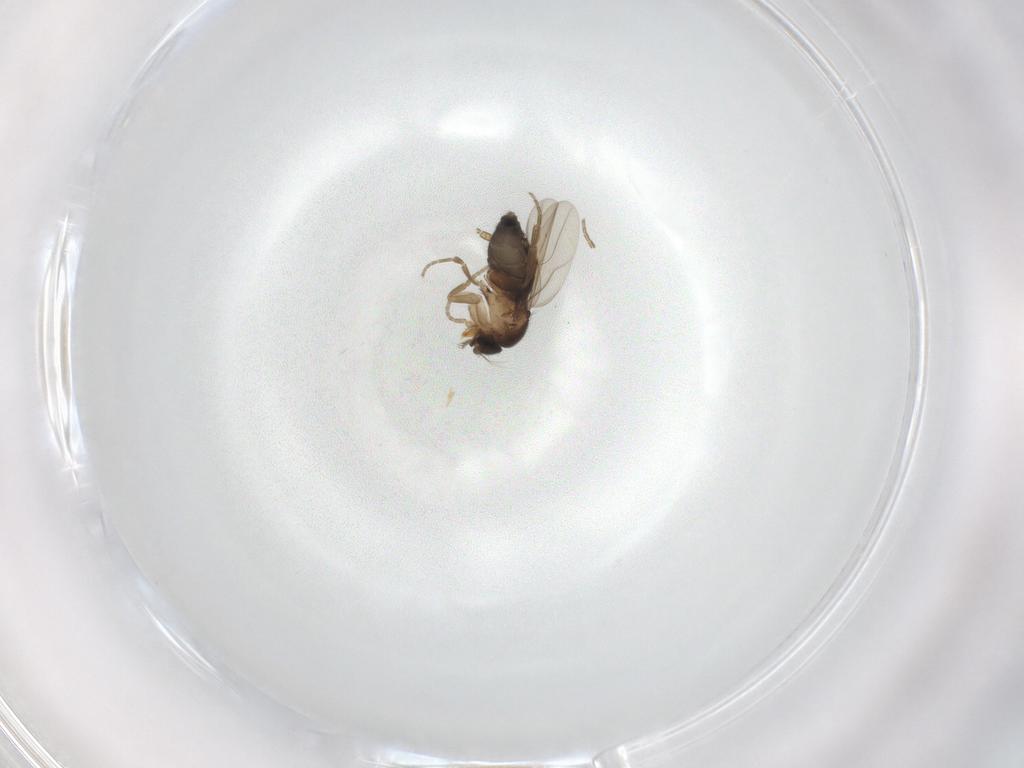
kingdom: Animalia
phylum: Arthropoda
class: Insecta
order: Diptera
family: Phoridae
